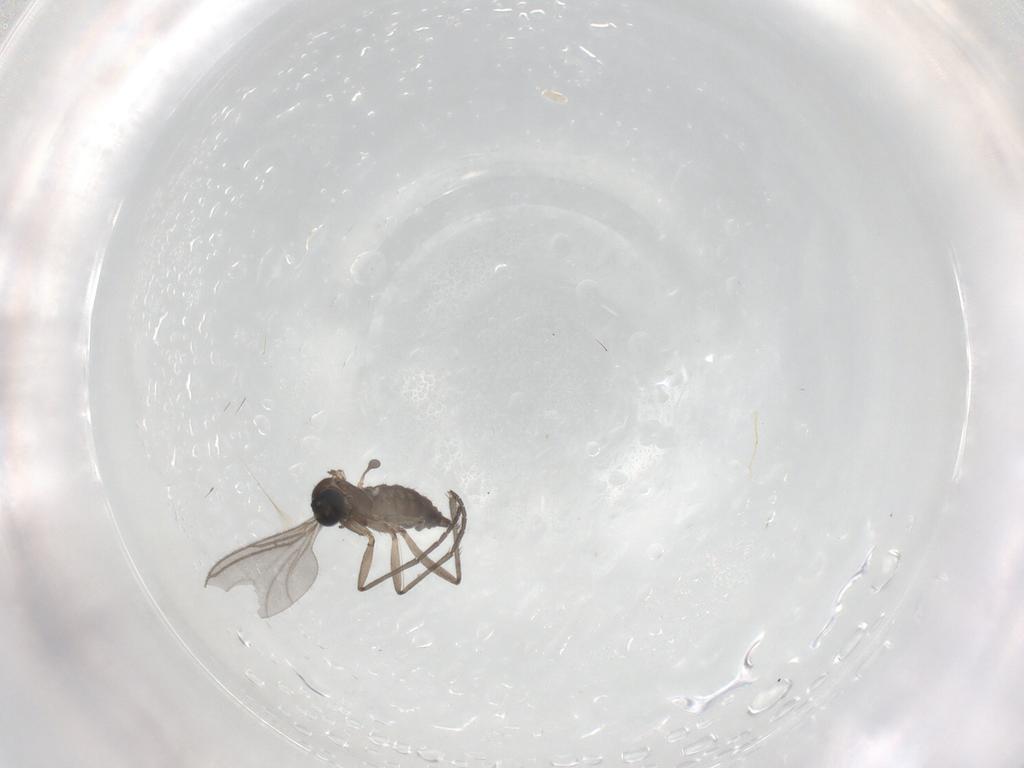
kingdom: Animalia
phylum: Arthropoda
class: Insecta
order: Diptera
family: Sciaridae
